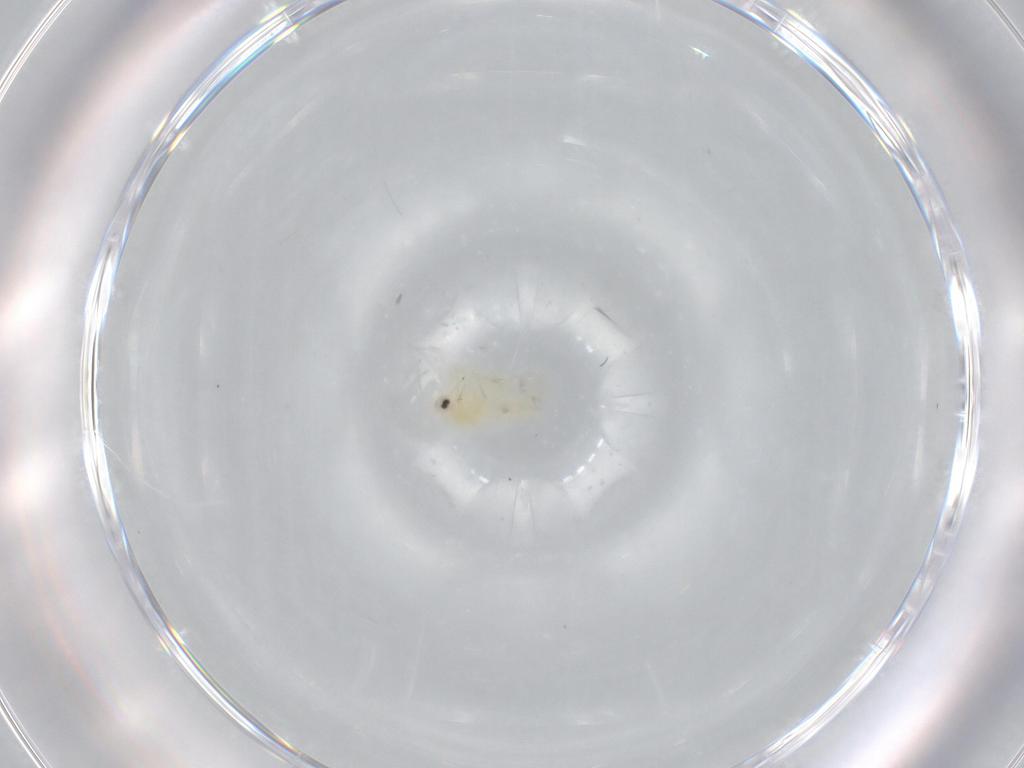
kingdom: Animalia
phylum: Arthropoda
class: Insecta
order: Hemiptera
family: Aleyrodidae
